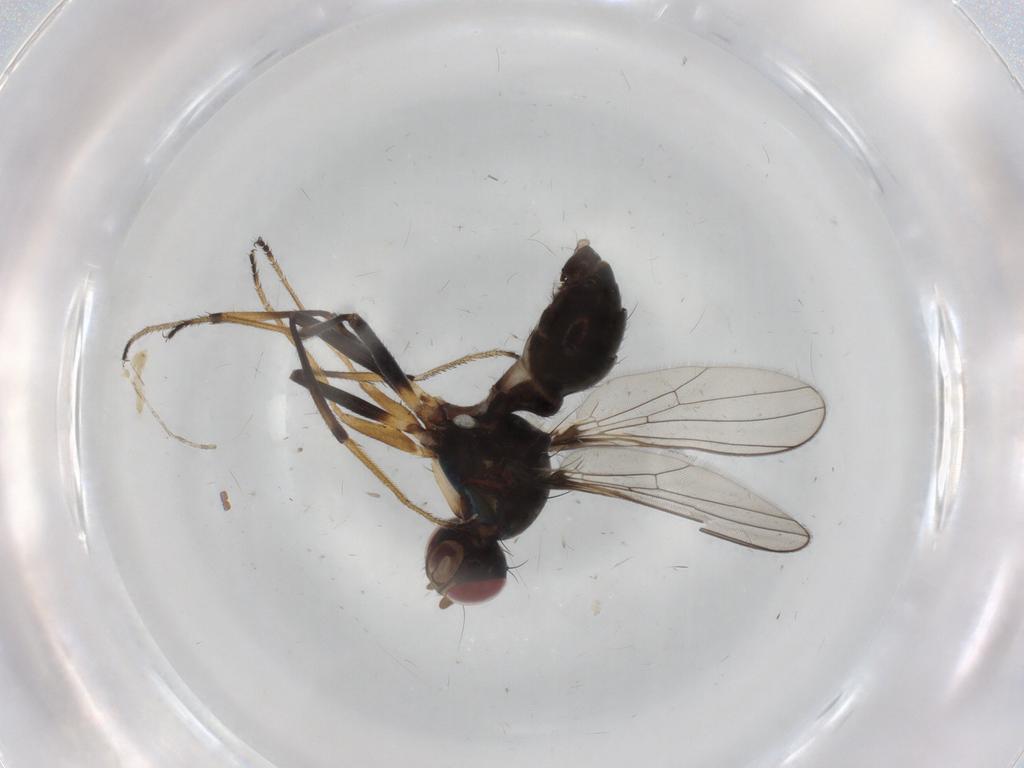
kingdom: Animalia
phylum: Arthropoda
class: Insecta
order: Diptera
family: Sepsidae
